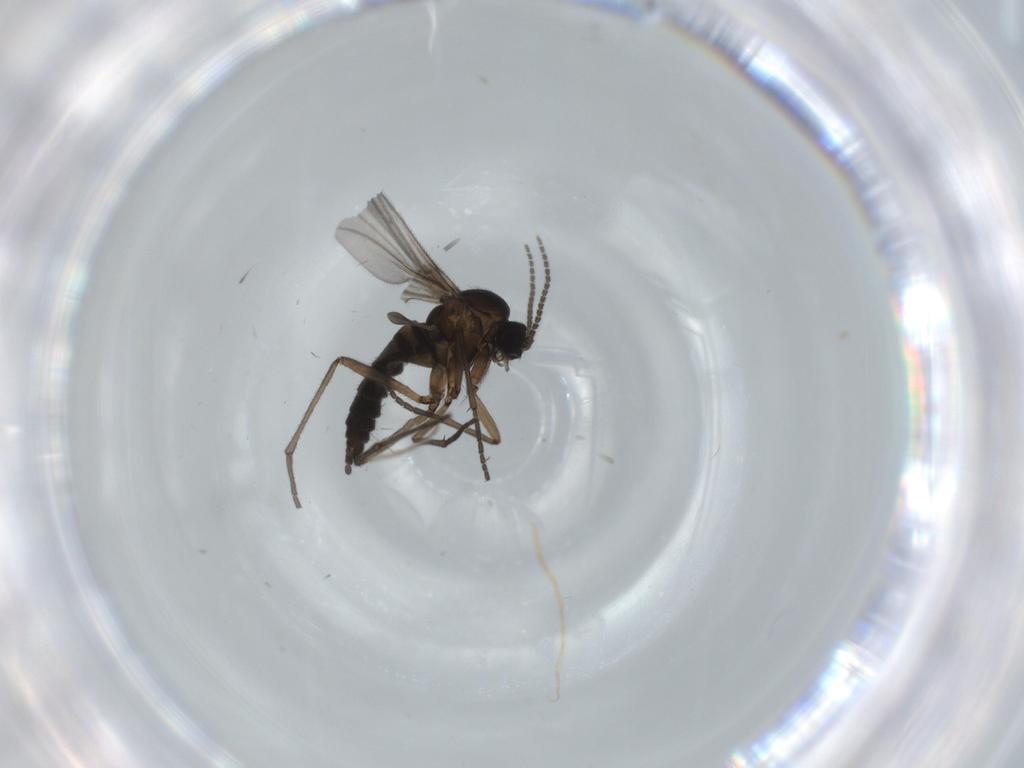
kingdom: Animalia
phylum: Arthropoda
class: Insecta
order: Diptera
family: Sciaridae
